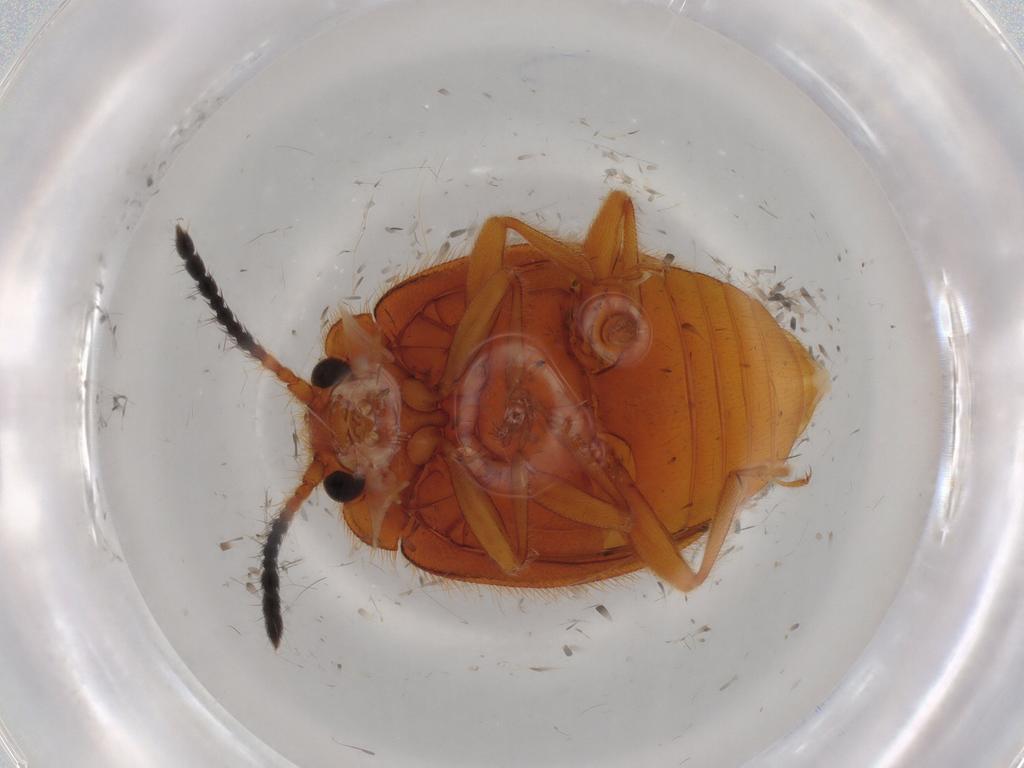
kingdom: Animalia
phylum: Arthropoda
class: Insecta
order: Coleoptera
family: Endomychidae
